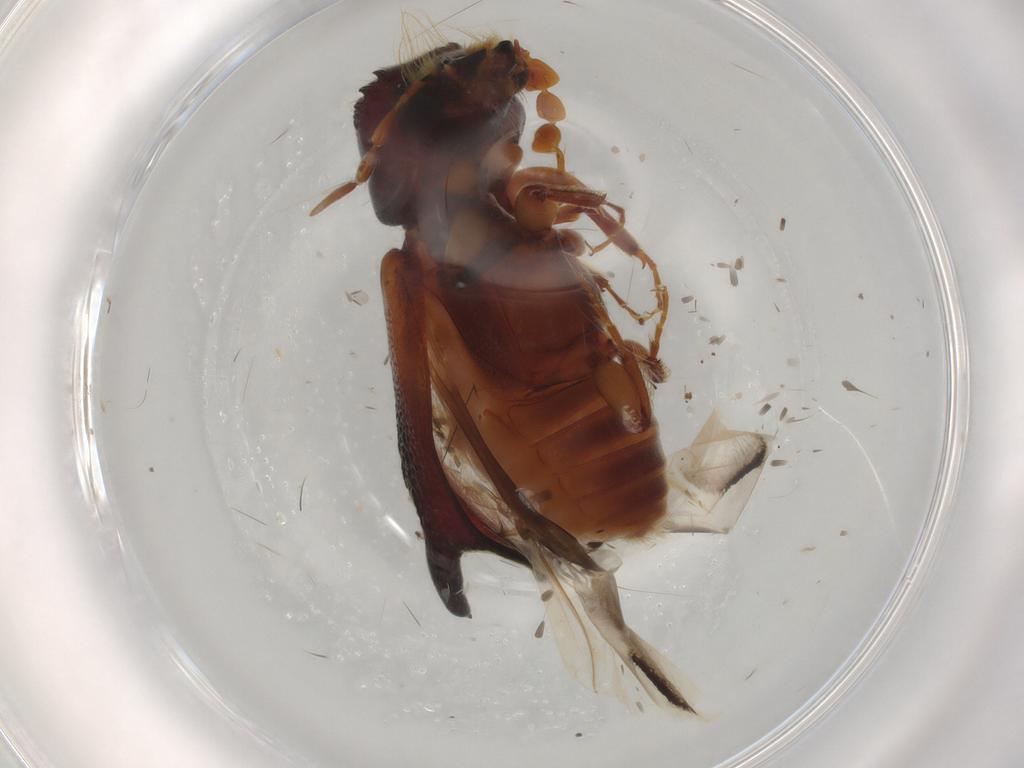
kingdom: Animalia
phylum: Arthropoda
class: Insecta
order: Coleoptera
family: Bostrichidae
